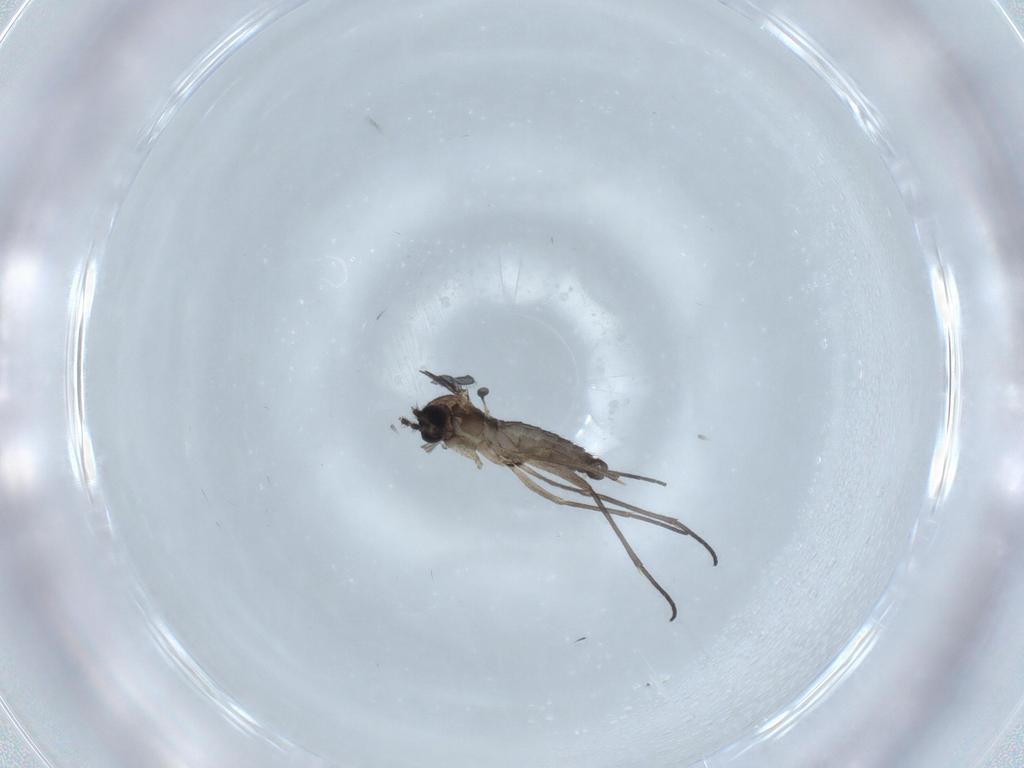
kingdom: Animalia
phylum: Arthropoda
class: Insecta
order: Diptera
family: Sciaridae
